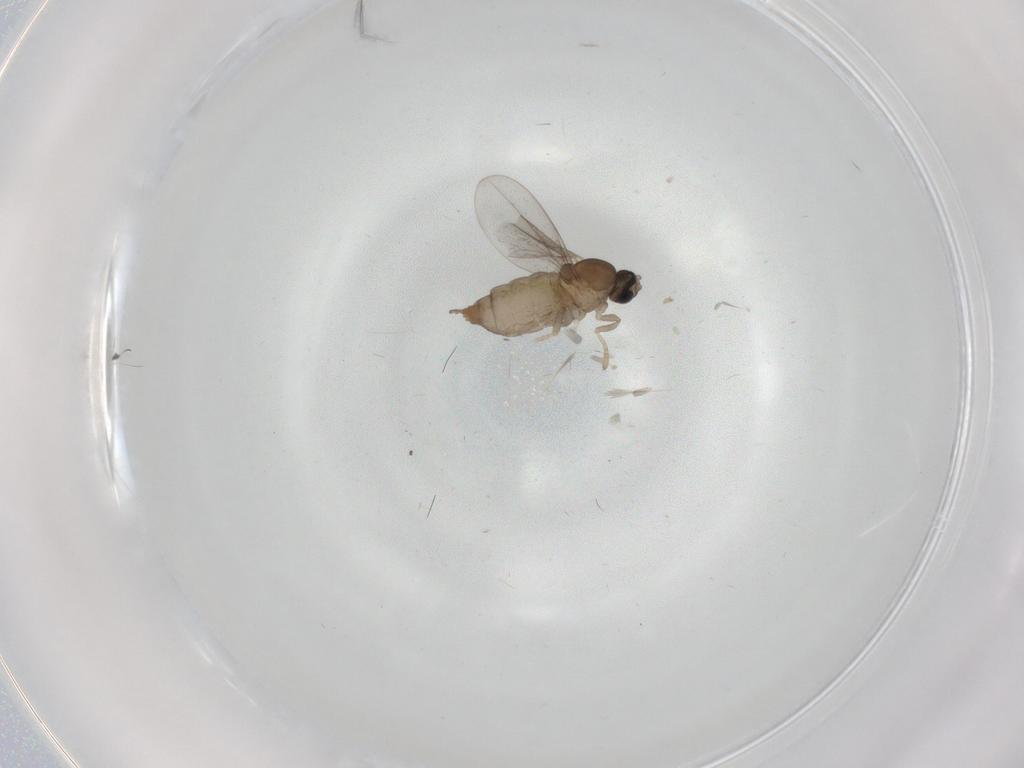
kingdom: Animalia
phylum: Arthropoda
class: Insecta
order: Diptera
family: Cecidomyiidae
